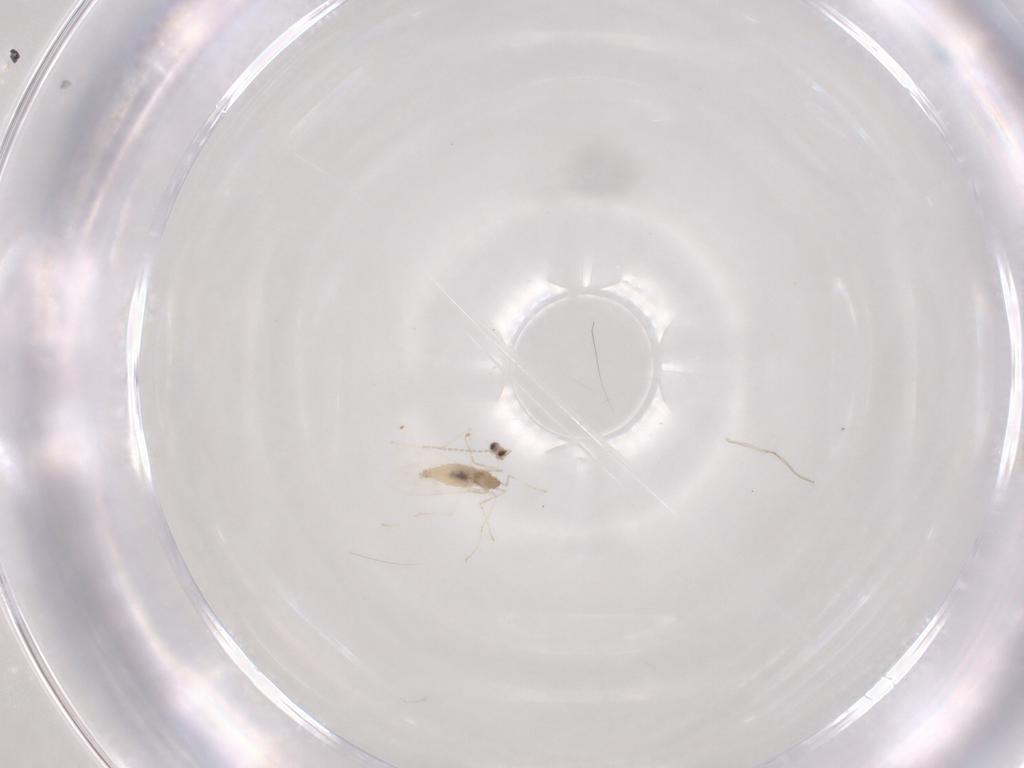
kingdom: Animalia
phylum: Arthropoda
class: Insecta
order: Diptera
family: Cecidomyiidae
